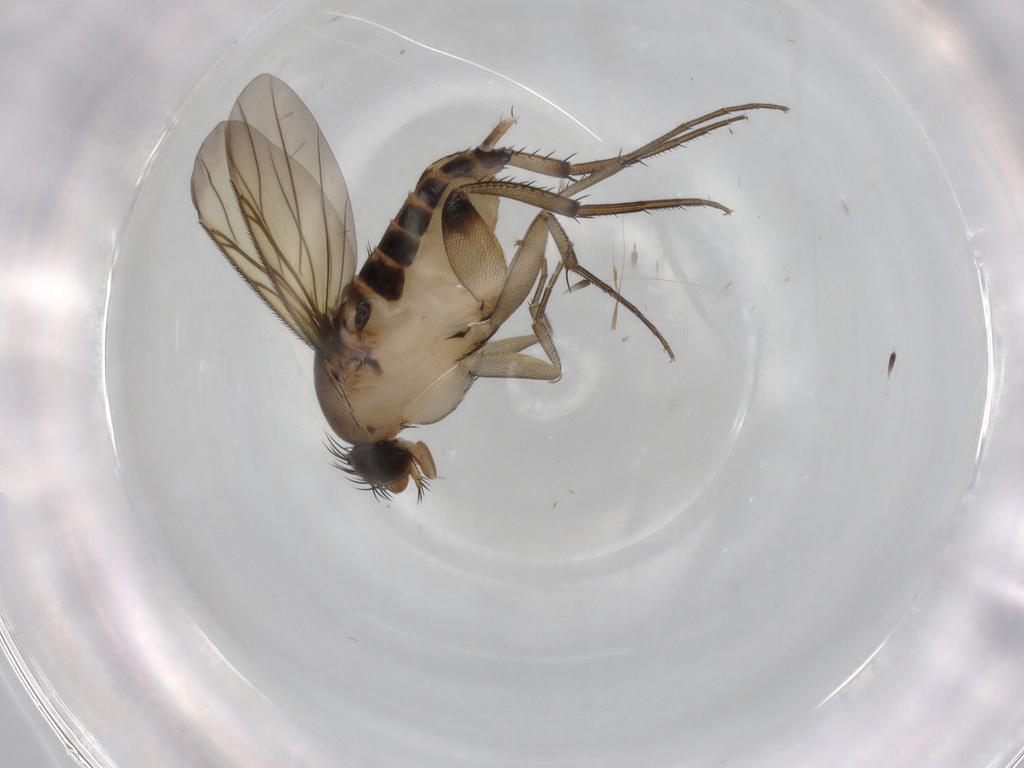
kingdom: Animalia
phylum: Arthropoda
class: Insecta
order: Diptera
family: Phoridae
